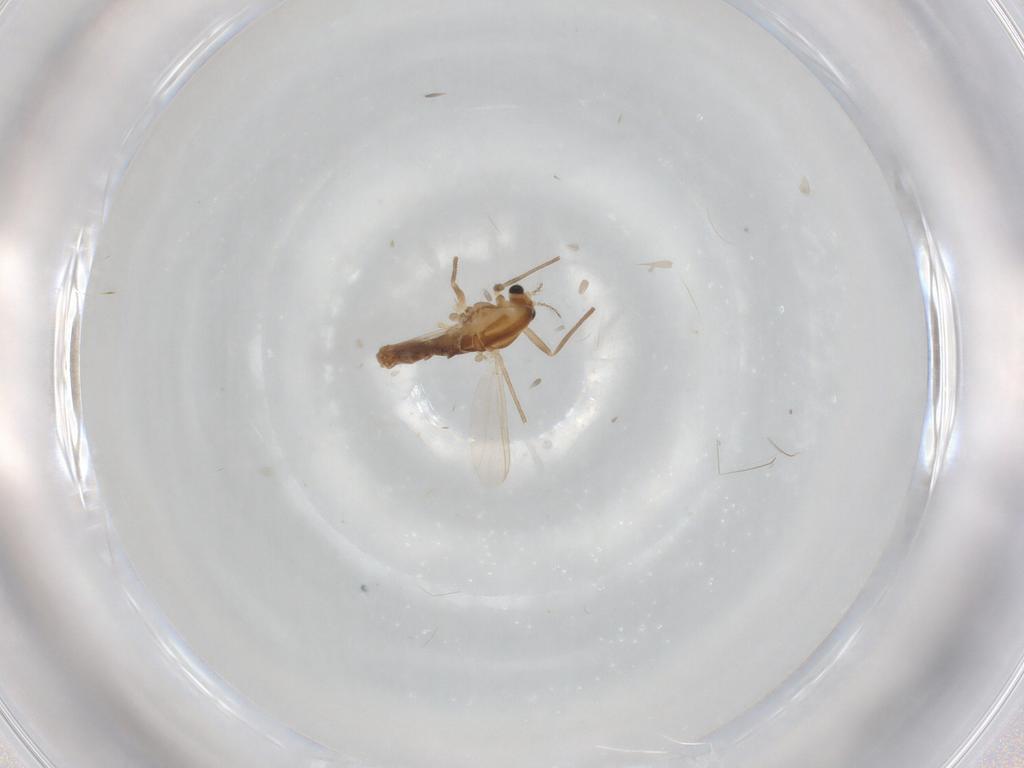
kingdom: Animalia
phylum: Arthropoda
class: Insecta
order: Diptera
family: Chironomidae
